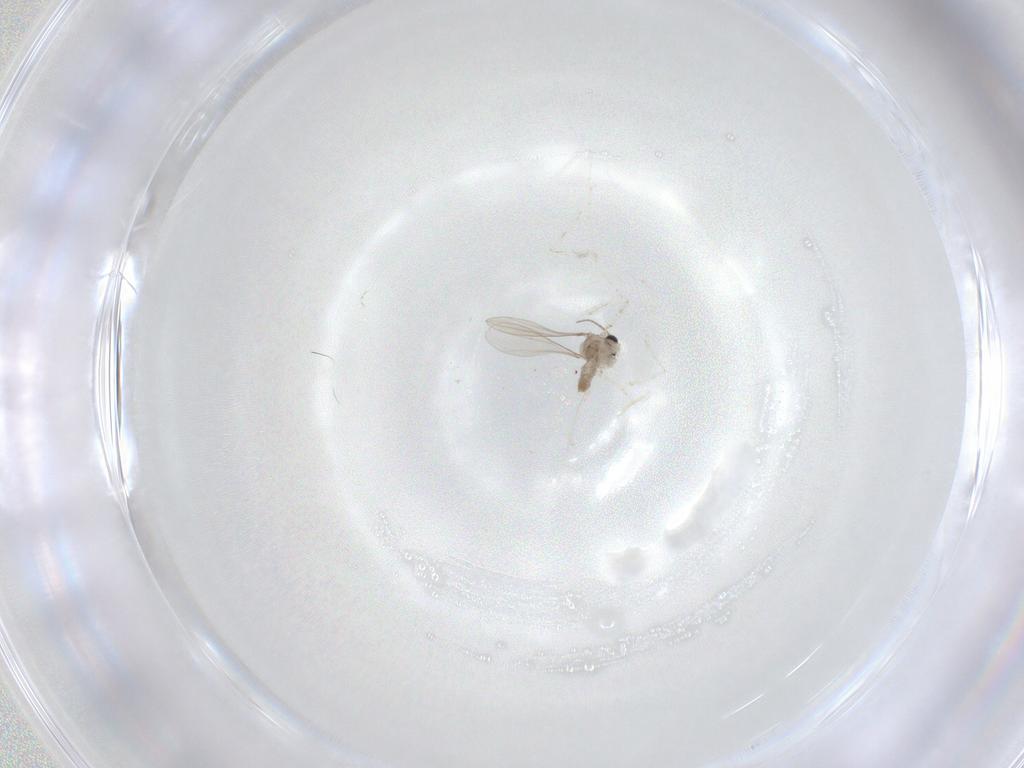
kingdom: Animalia
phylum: Arthropoda
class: Insecta
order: Diptera
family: Cecidomyiidae
